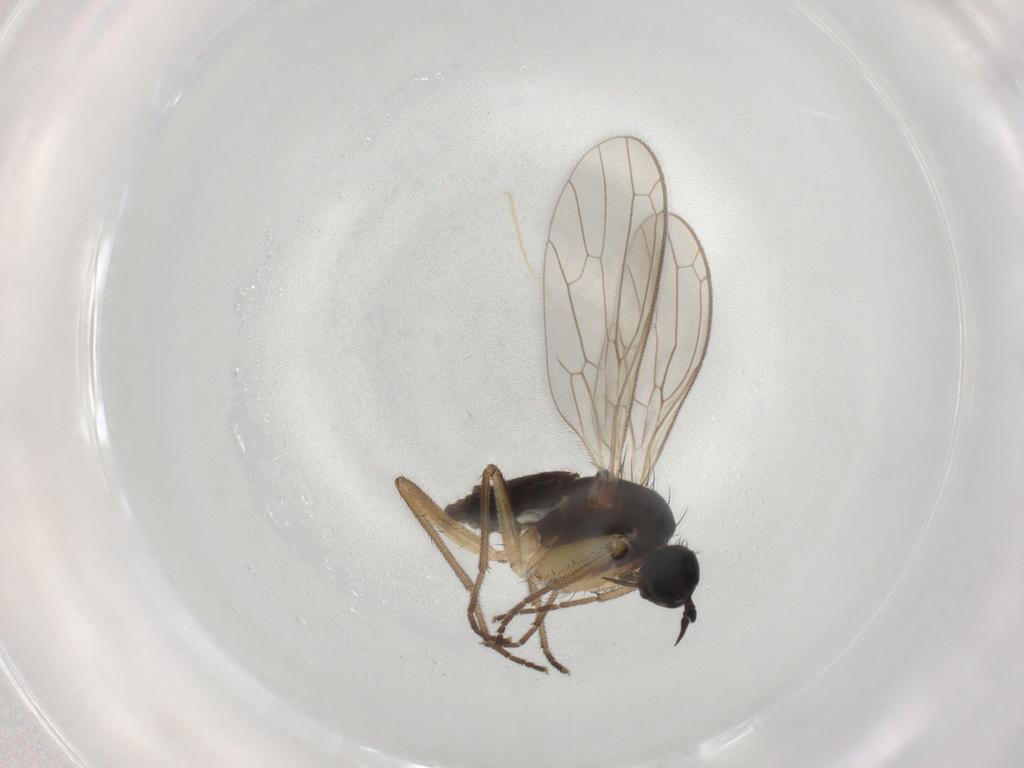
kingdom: Animalia
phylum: Arthropoda
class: Insecta
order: Diptera
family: Empididae
